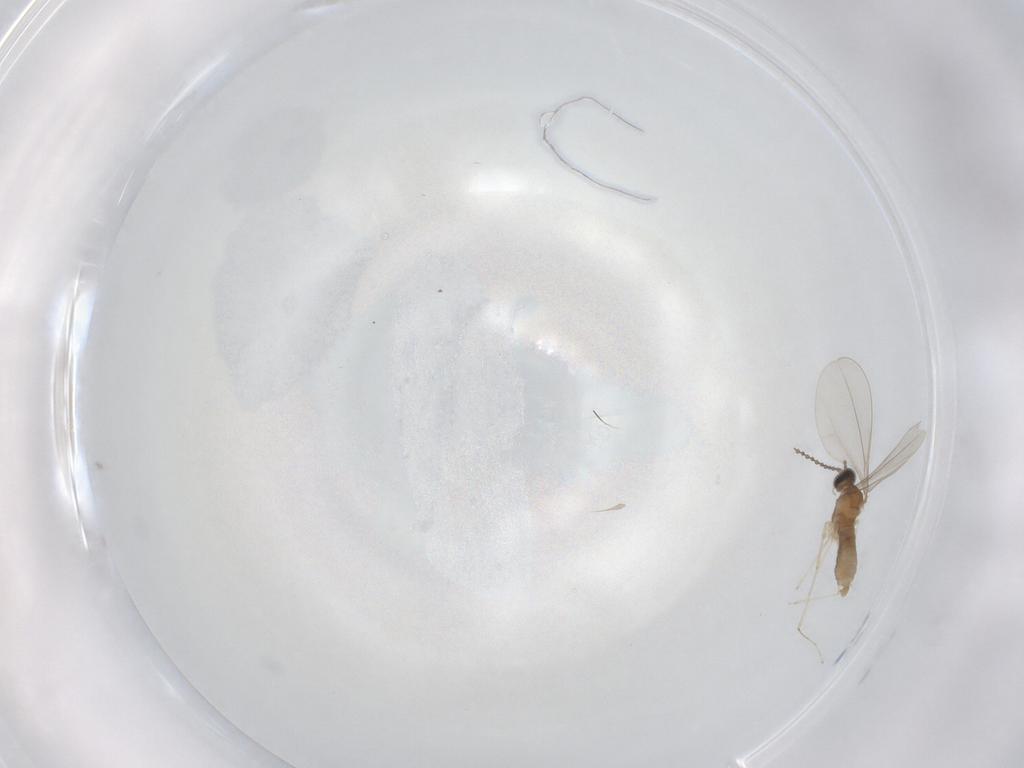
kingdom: Animalia
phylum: Arthropoda
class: Insecta
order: Diptera
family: Cecidomyiidae
